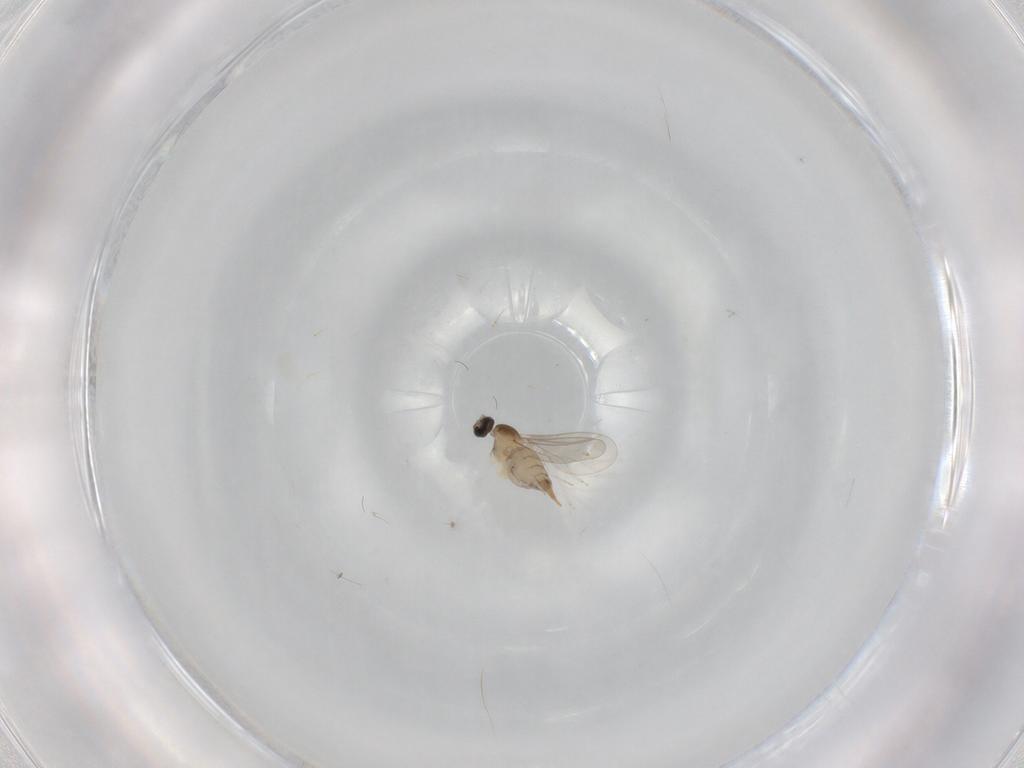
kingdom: Animalia
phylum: Arthropoda
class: Insecta
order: Diptera
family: Cecidomyiidae
